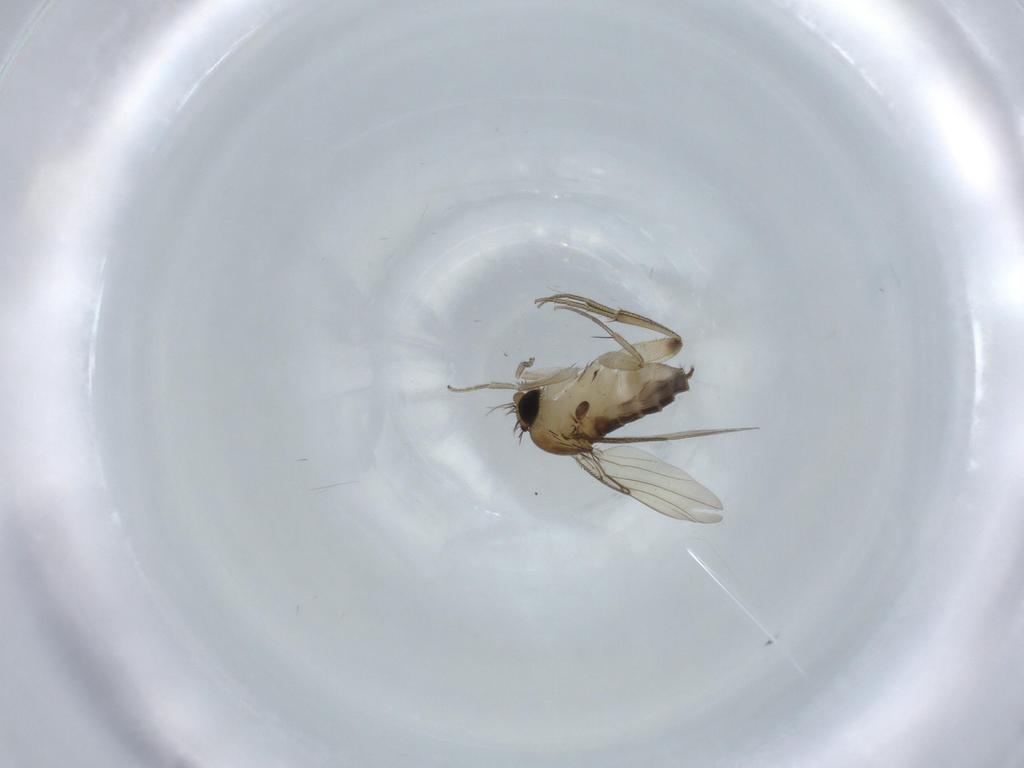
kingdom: Animalia
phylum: Arthropoda
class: Insecta
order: Diptera
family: Phoridae
